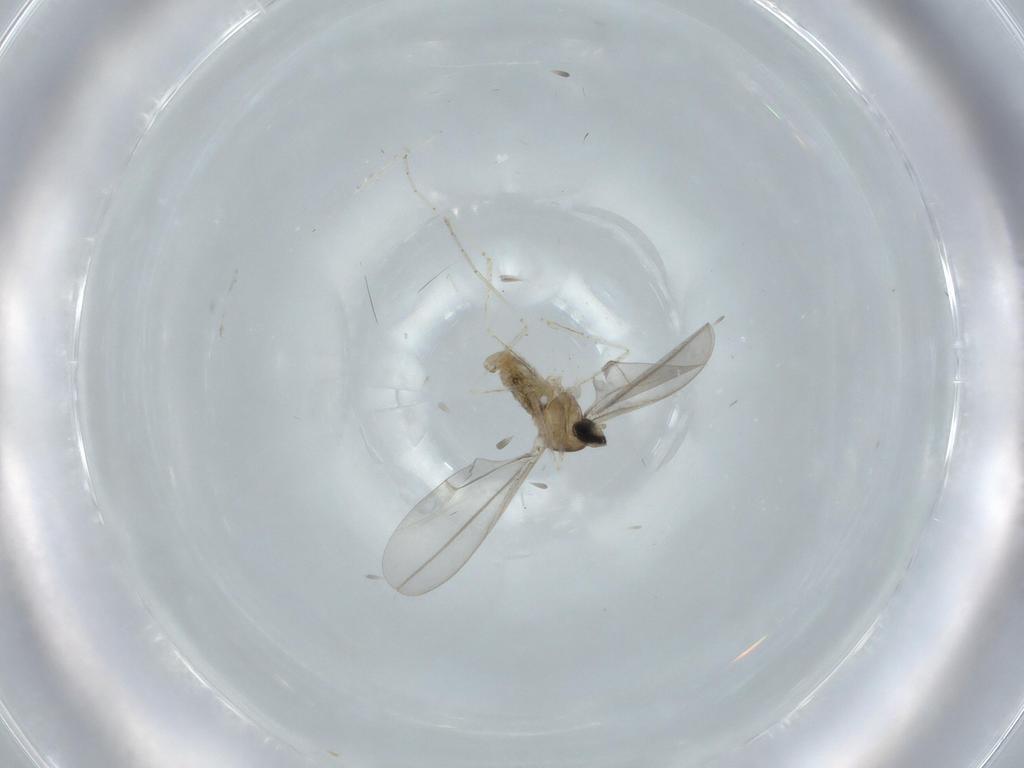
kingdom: Animalia
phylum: Arthropoda
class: Insecta
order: Diptera
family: Cecidomyiidae
